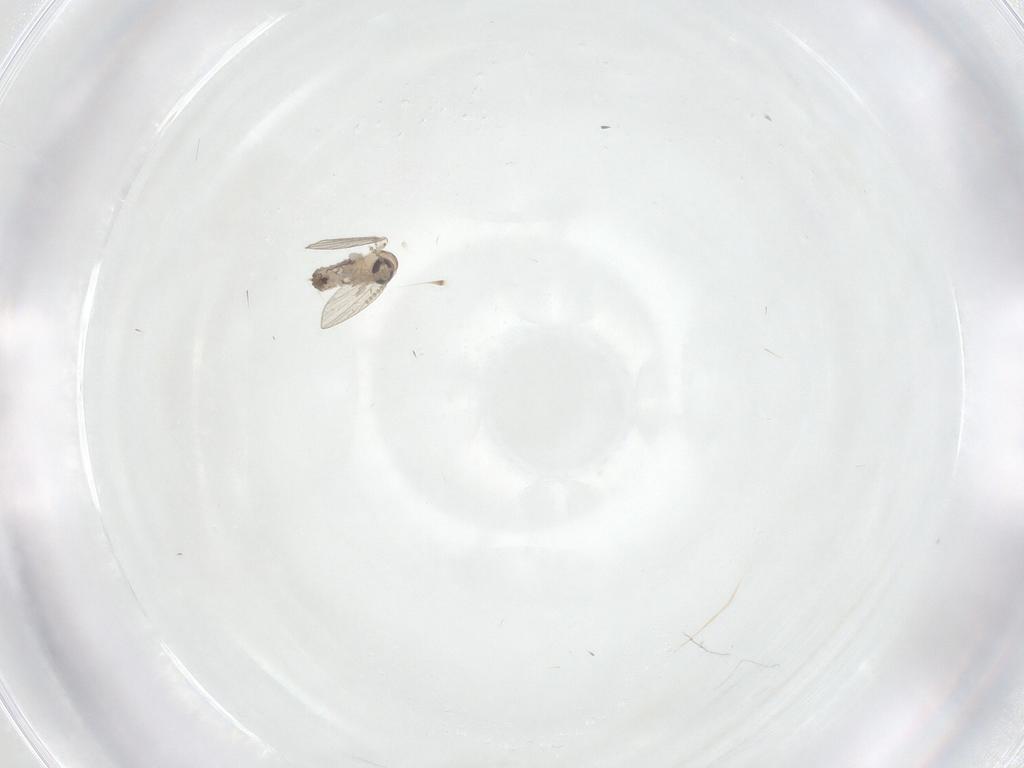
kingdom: Animalia
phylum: Arthropoda
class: Insecta
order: Diptera
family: Psychodidae
